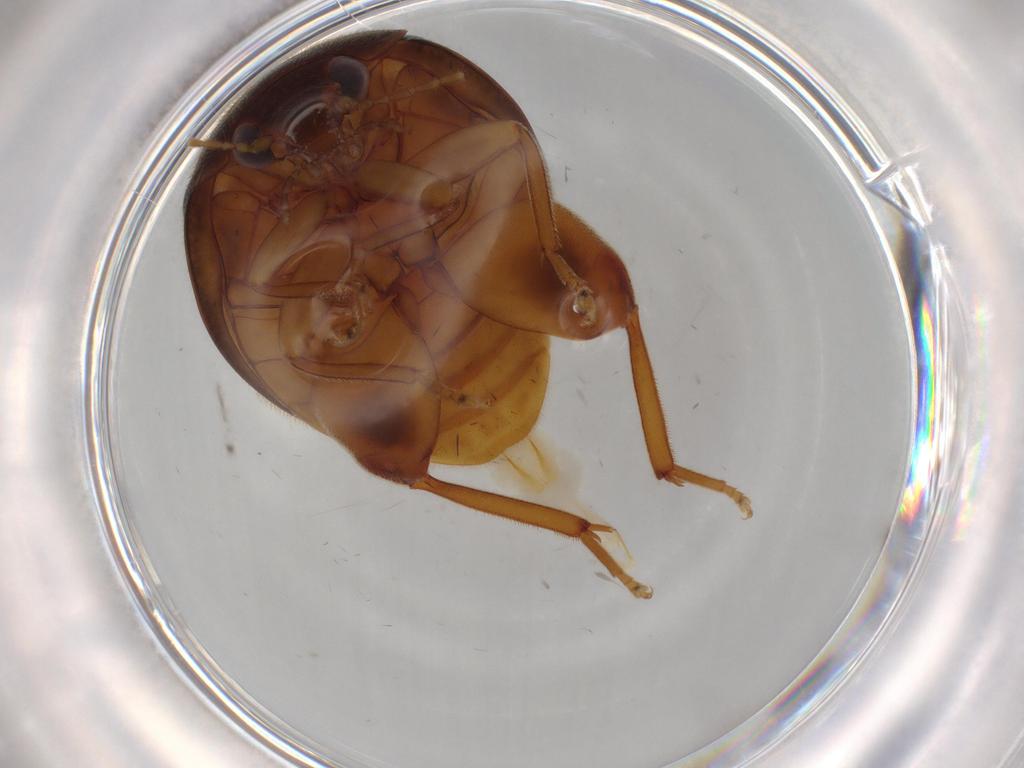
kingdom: Animalia
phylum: Arthropoda
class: Insecta
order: Coleoptera
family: Scirtidae
